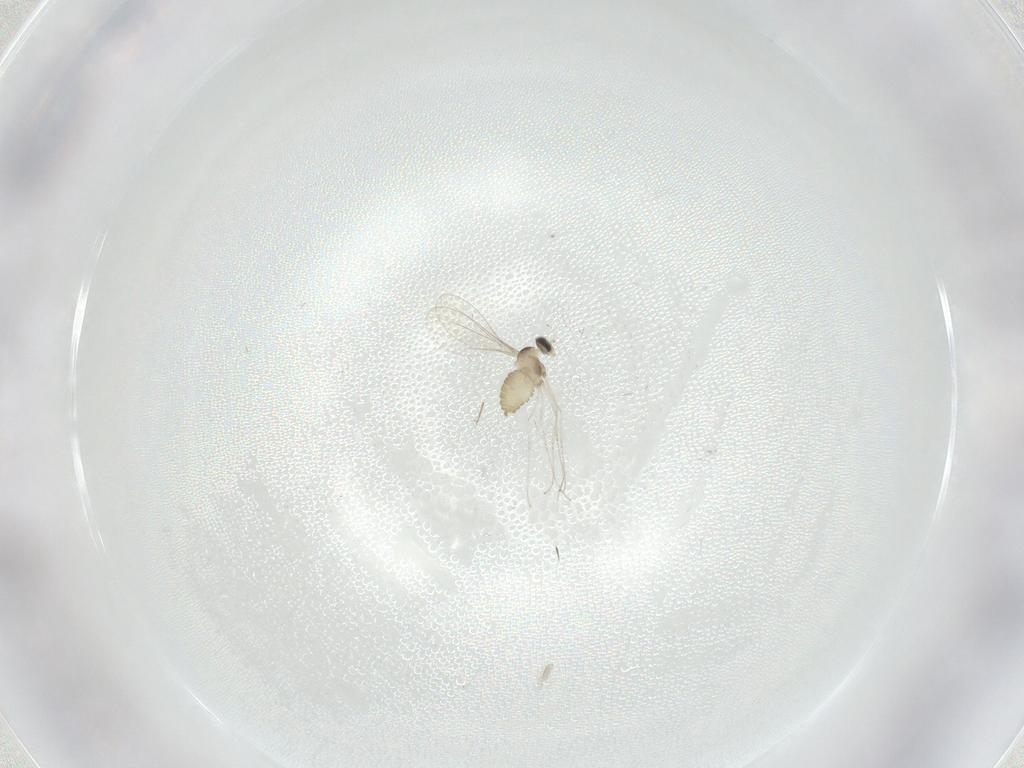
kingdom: Animalia
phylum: Arthropoda
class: Insecta
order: Diptera
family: Cecidomyiidae
